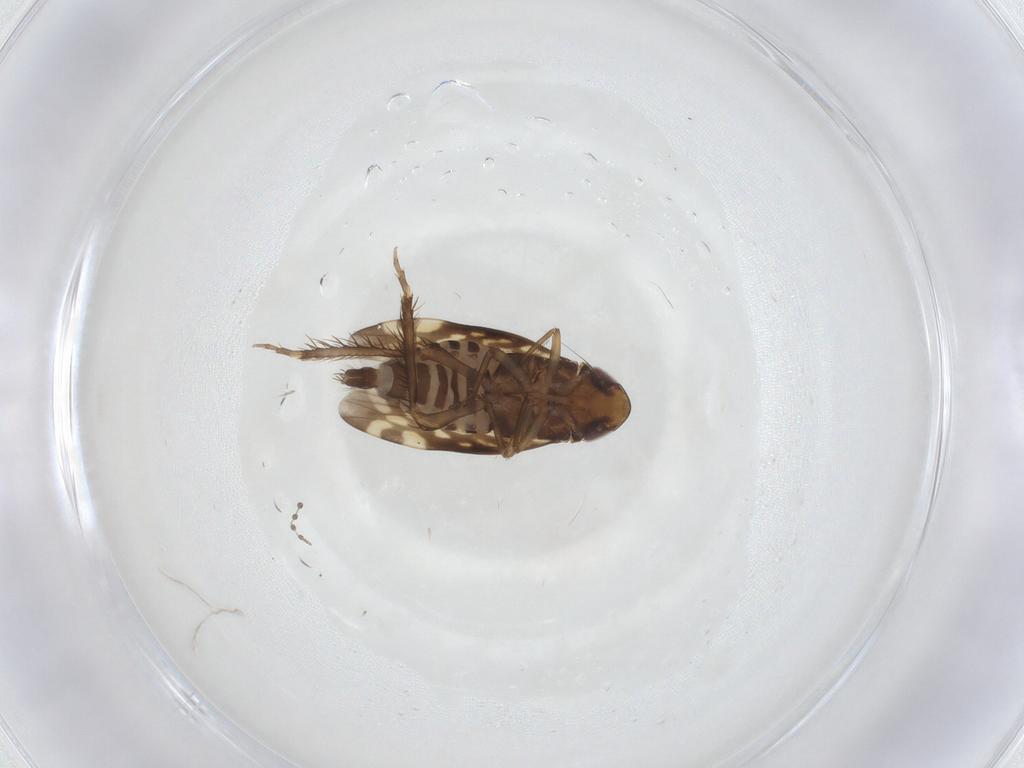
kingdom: Animalia
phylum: Arthropoda
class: Insecta
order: Hemiptera
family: Cicadellidae
